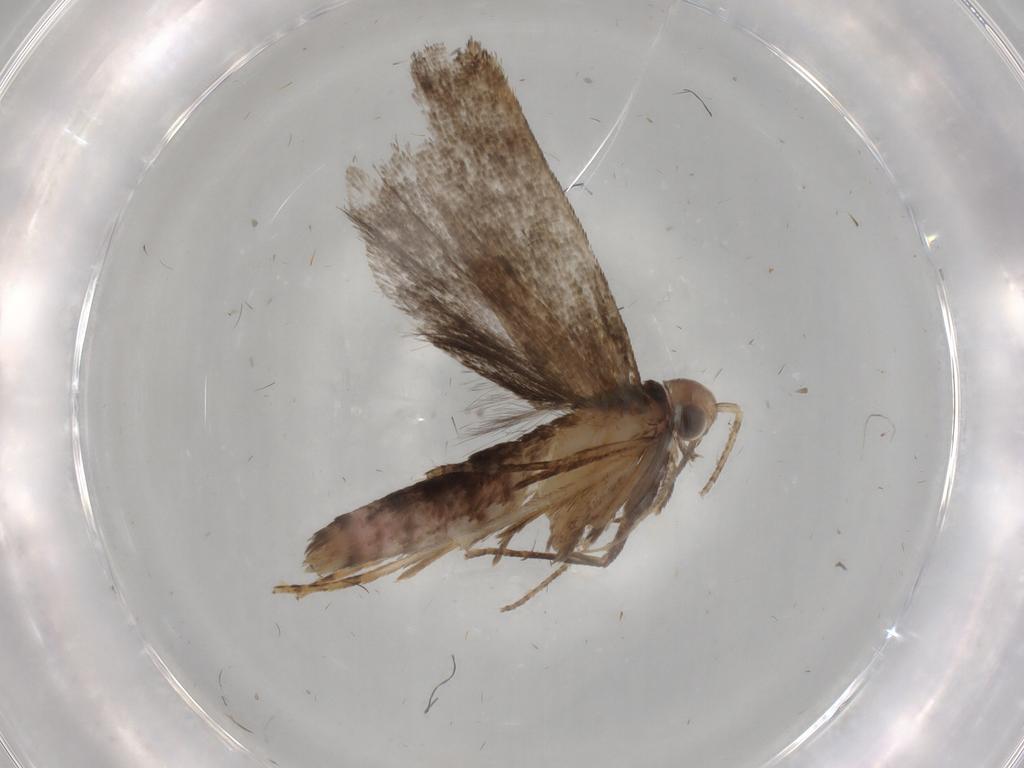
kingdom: Animalia
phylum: Arthropoda
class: Insecta
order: Lepidoptera
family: Gelechiidae
